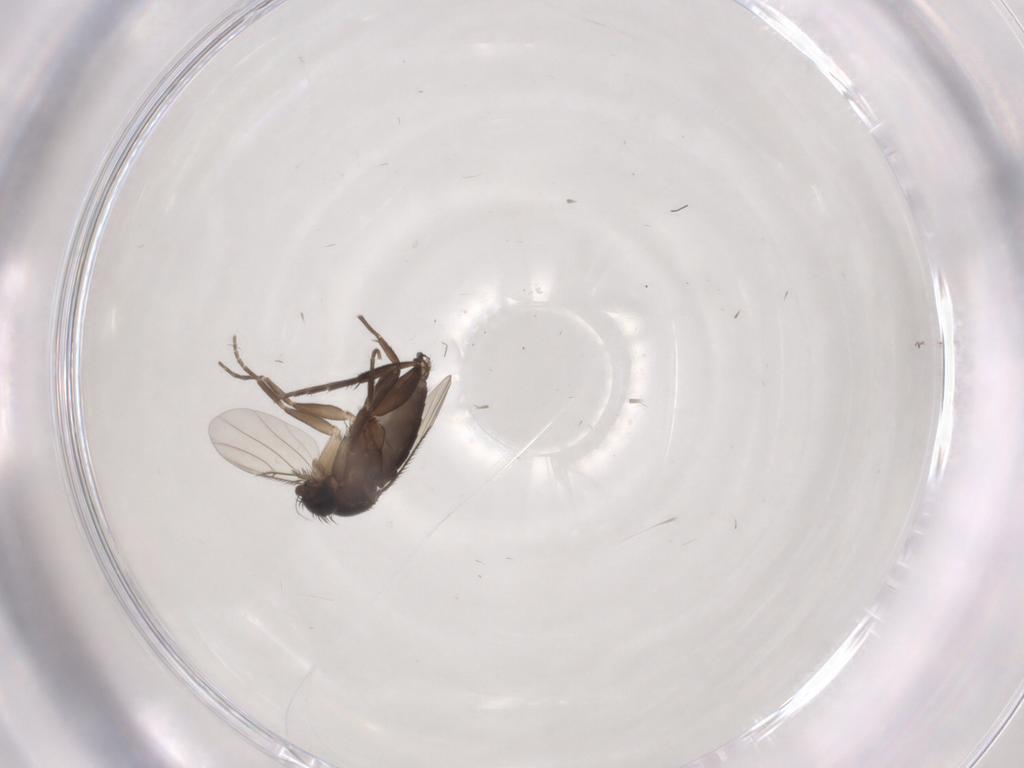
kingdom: Animalia
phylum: Arthropoda
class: Insecta
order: Diptera
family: Phoridae
